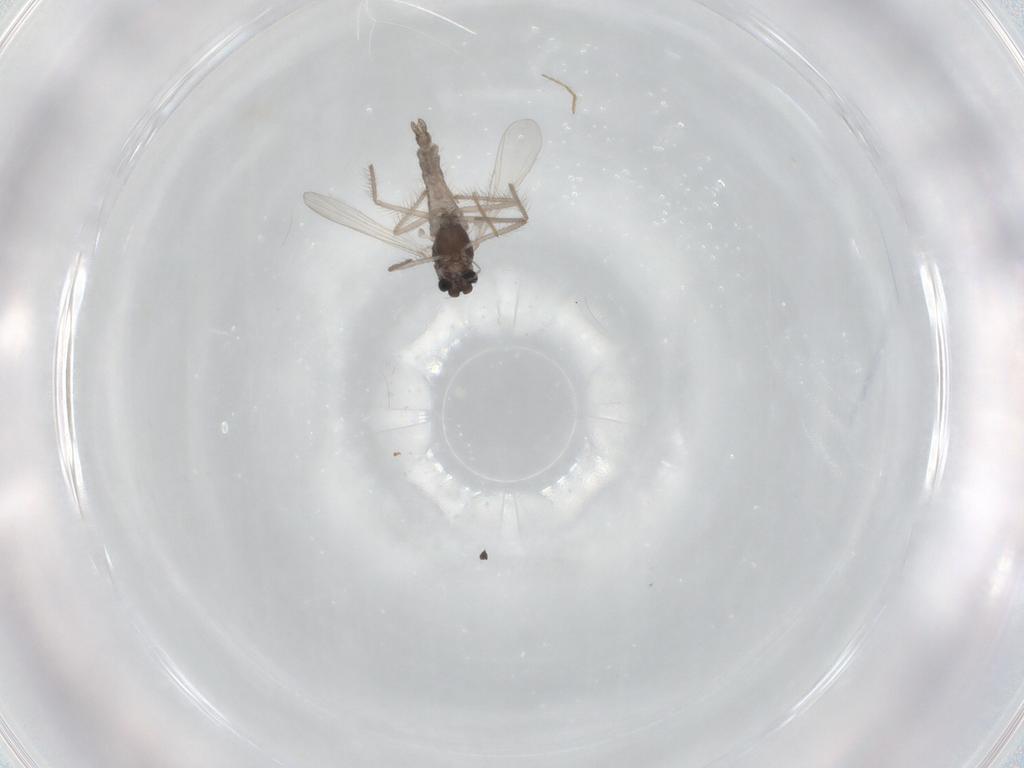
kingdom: Animalia
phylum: Arthropoda
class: Insecta
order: Diptera
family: Chironomidae
